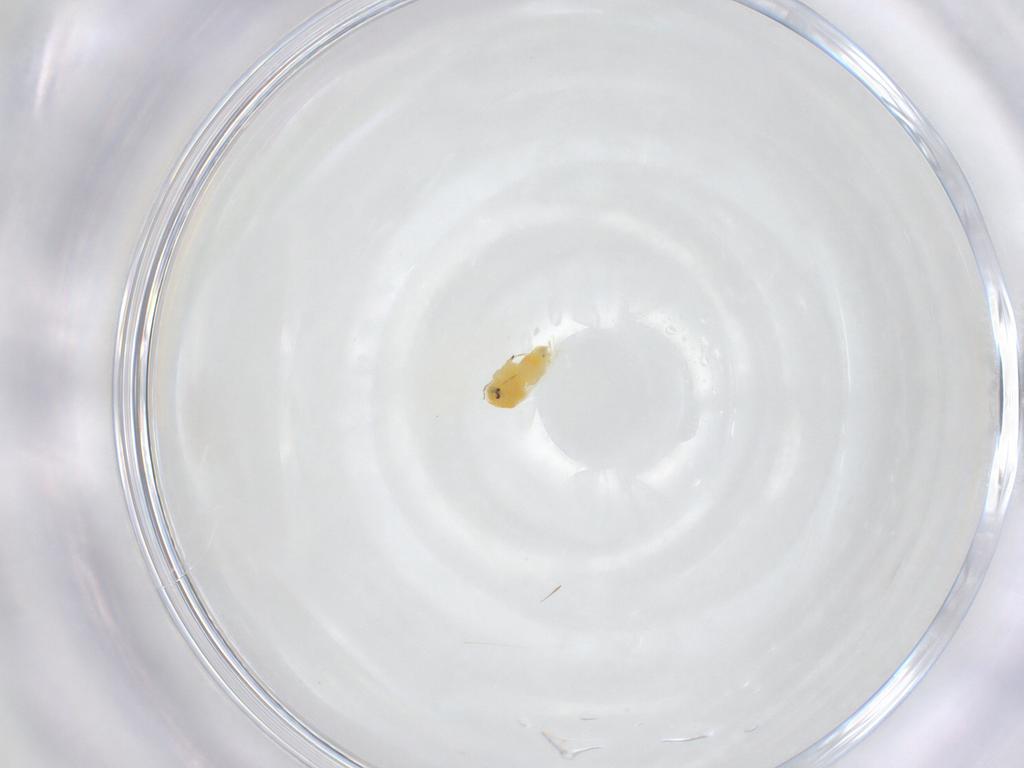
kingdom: Animalia
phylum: Arthropoda
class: Insecta
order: Hemiptera
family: Aleyrodidae
